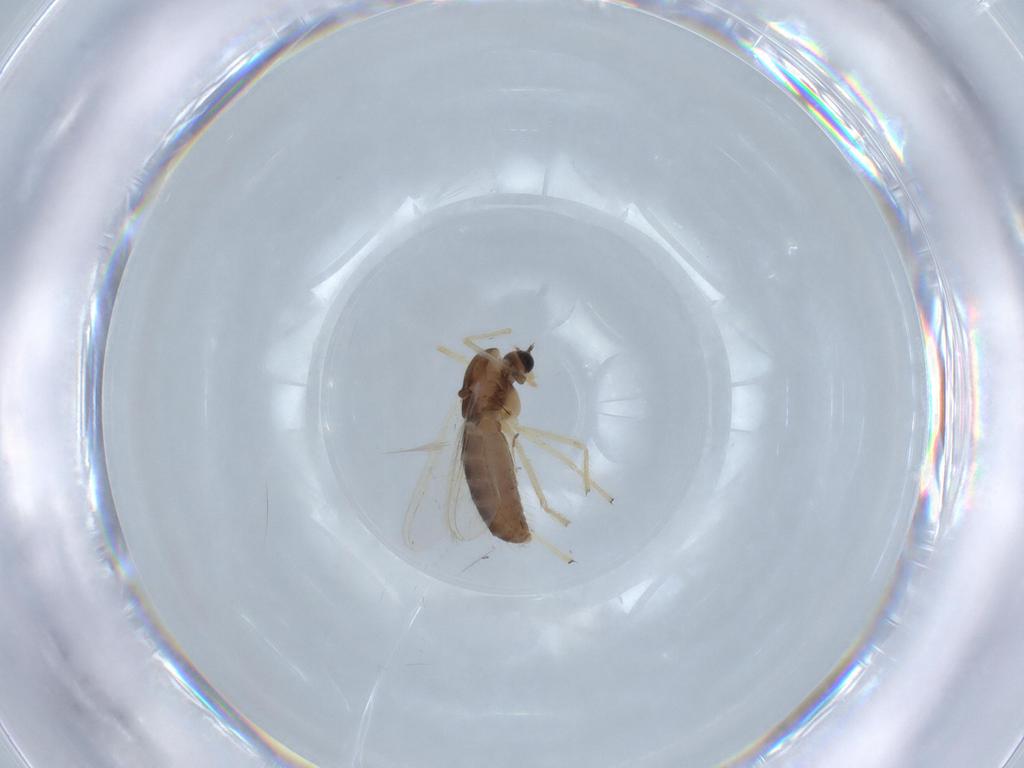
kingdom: Animalia
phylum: Arthropoda
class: Insecta
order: Diptera
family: Chironomidae
